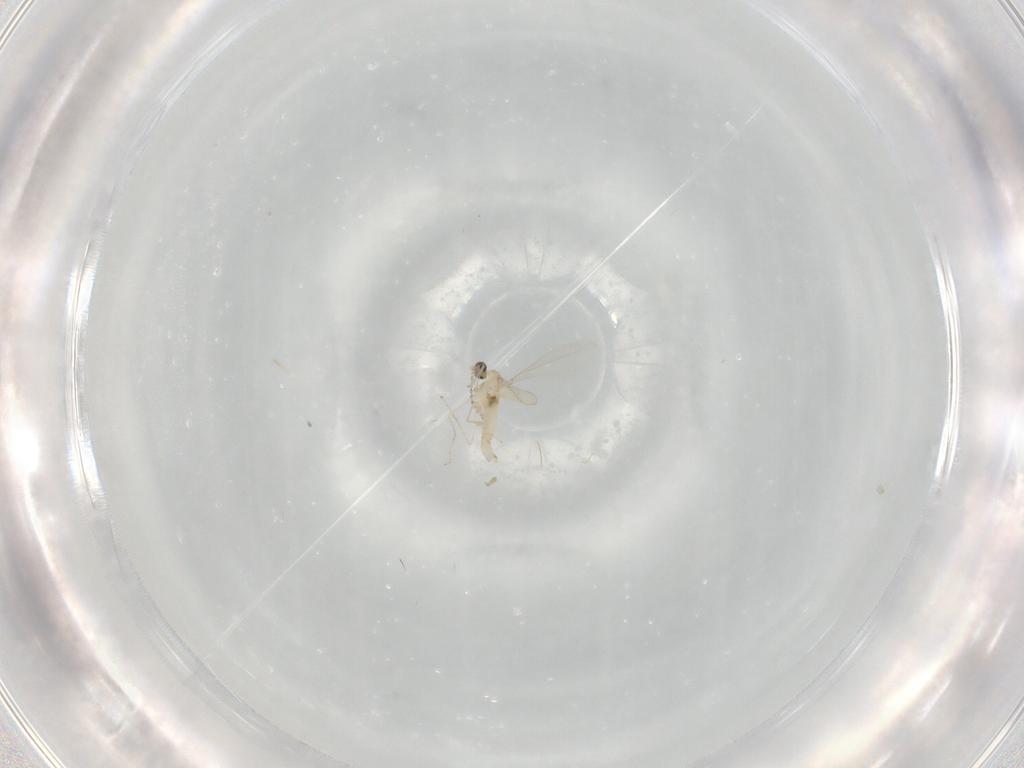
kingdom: Animalia
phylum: Arthropoda
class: Insecta
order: Diptera
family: Cecidomyiidae
